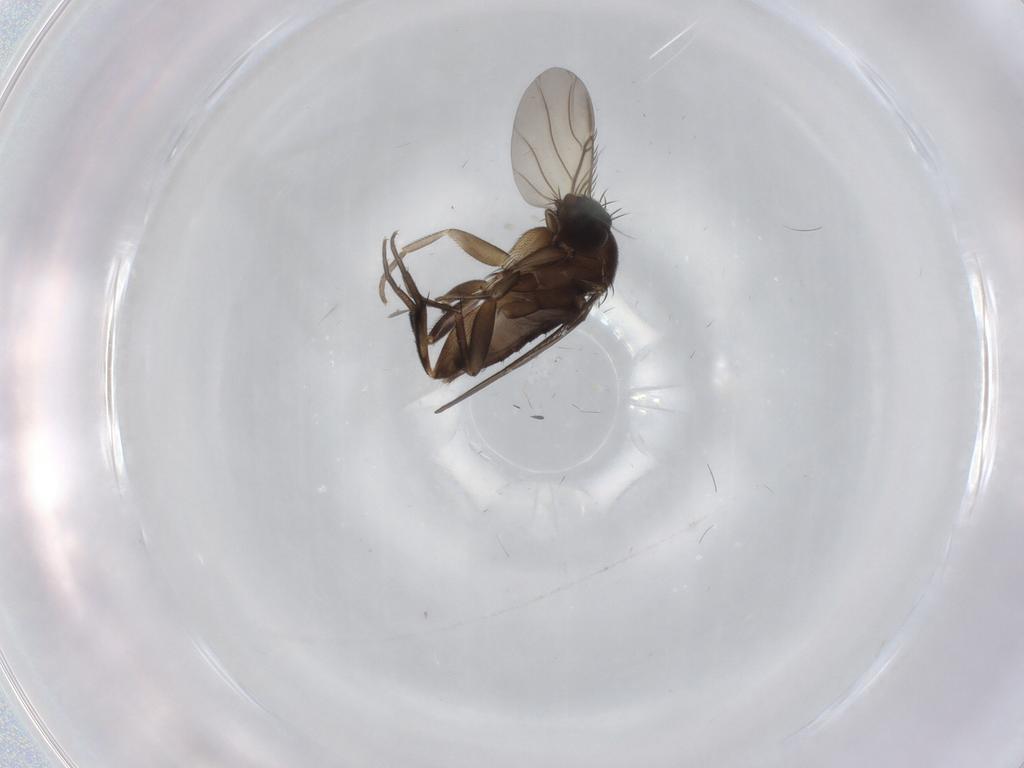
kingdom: Animalia
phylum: Arthropoda
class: Insecta
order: Diptera
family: Phoridae
